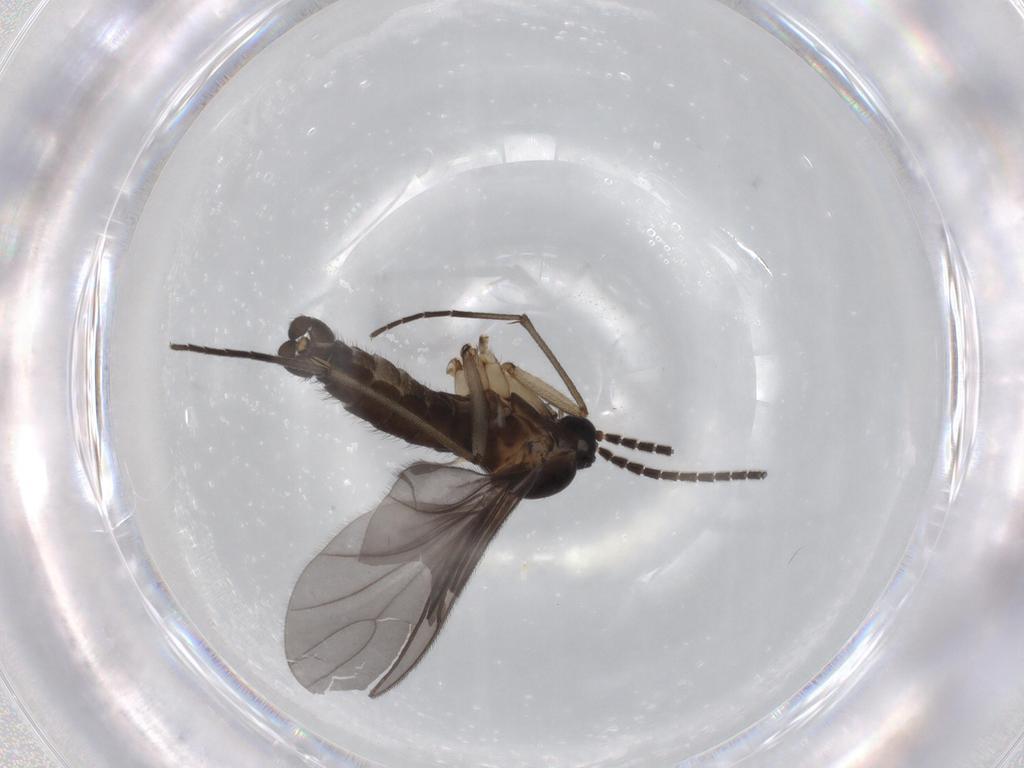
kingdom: Animalia
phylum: Arthropoda
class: Insecta
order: Diptera
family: Sciaridae
